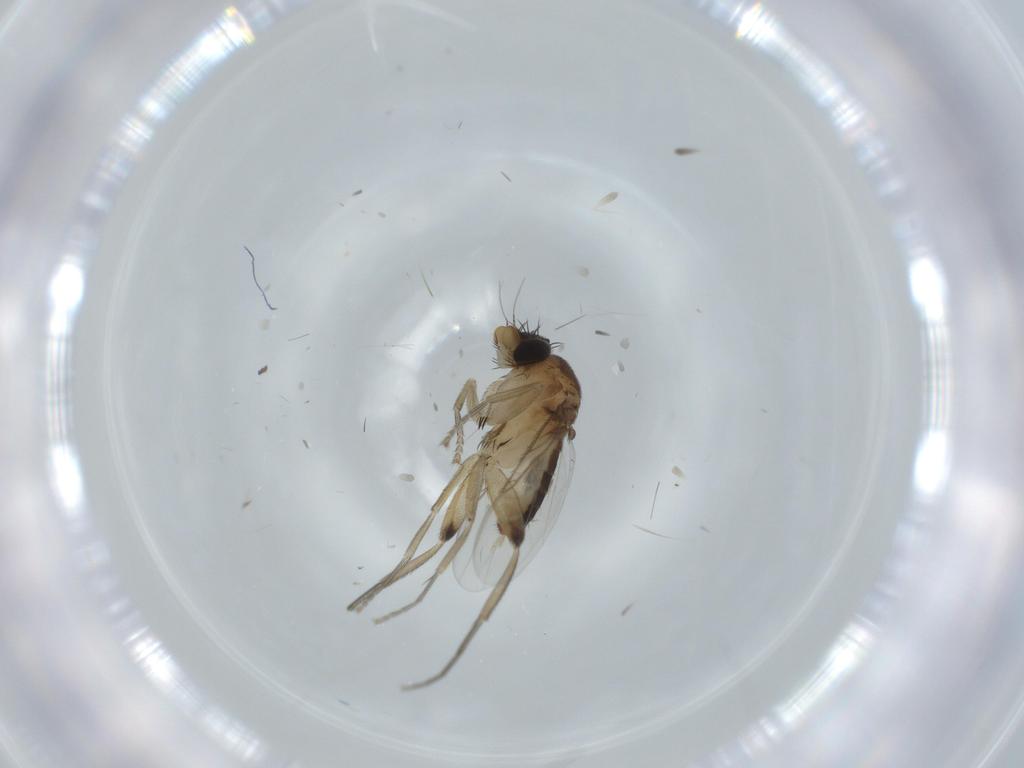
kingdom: Animalia
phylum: Arthropoda
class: Insecta
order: Diptera
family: Phoridae
